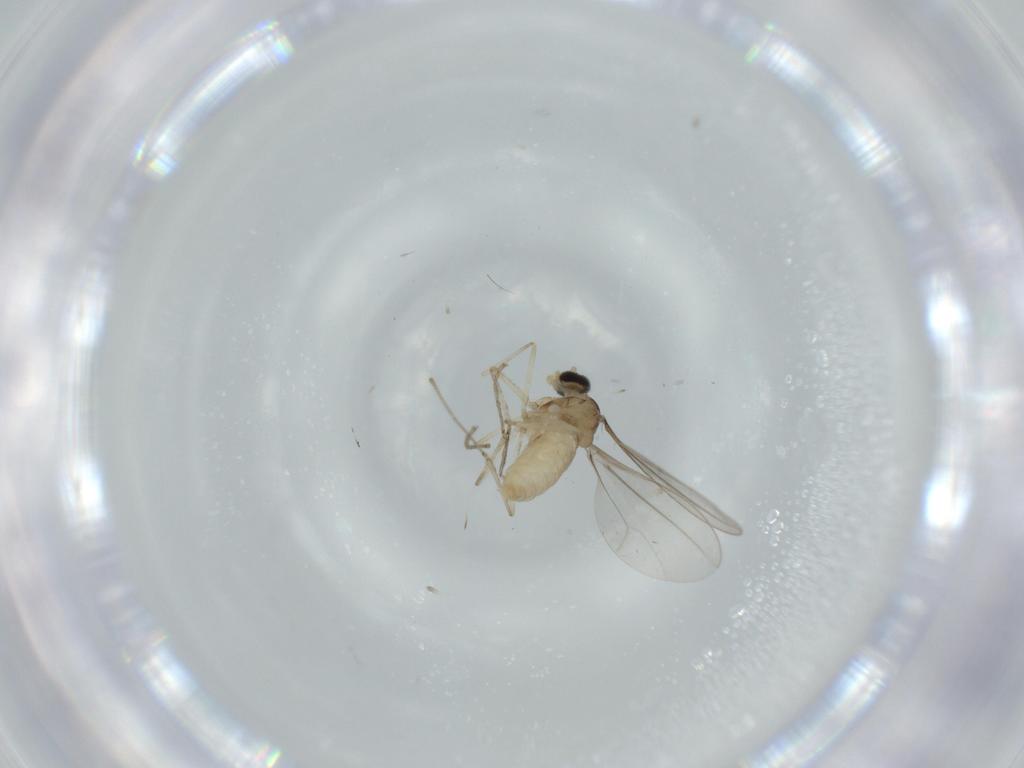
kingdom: Animalia
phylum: Arthropoda
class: Insecta
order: Diptera
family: Cecidomyiidae
